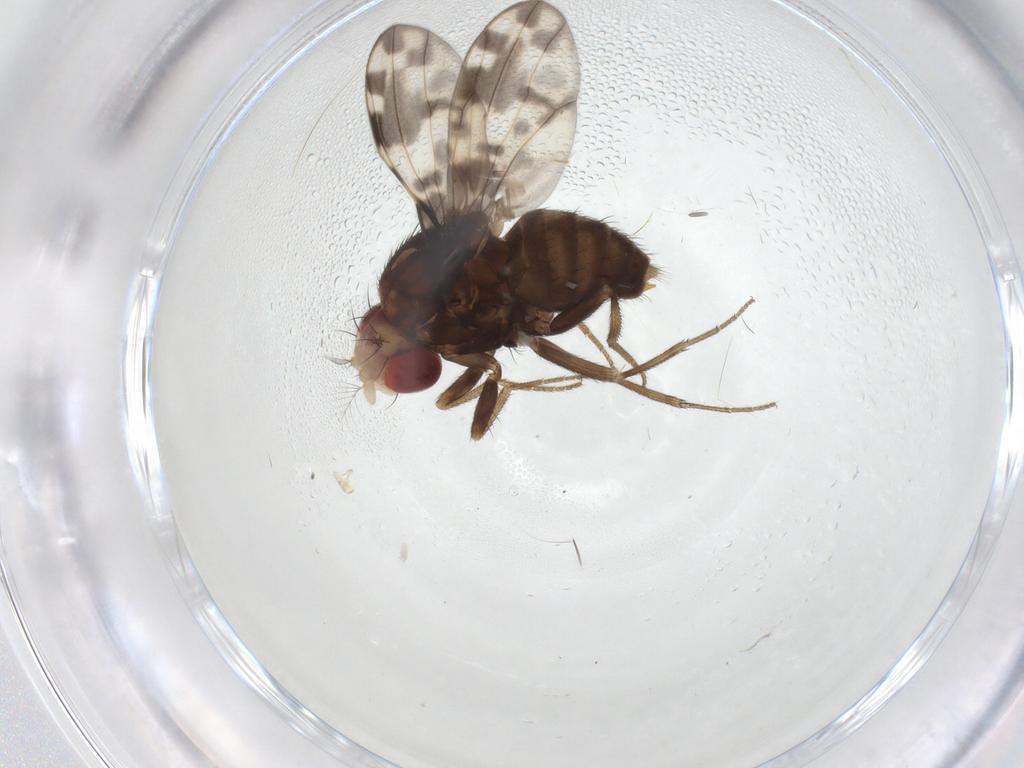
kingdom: Animalia
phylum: Arthropoda
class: Insecta
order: Diptera
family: Drosophilidae
